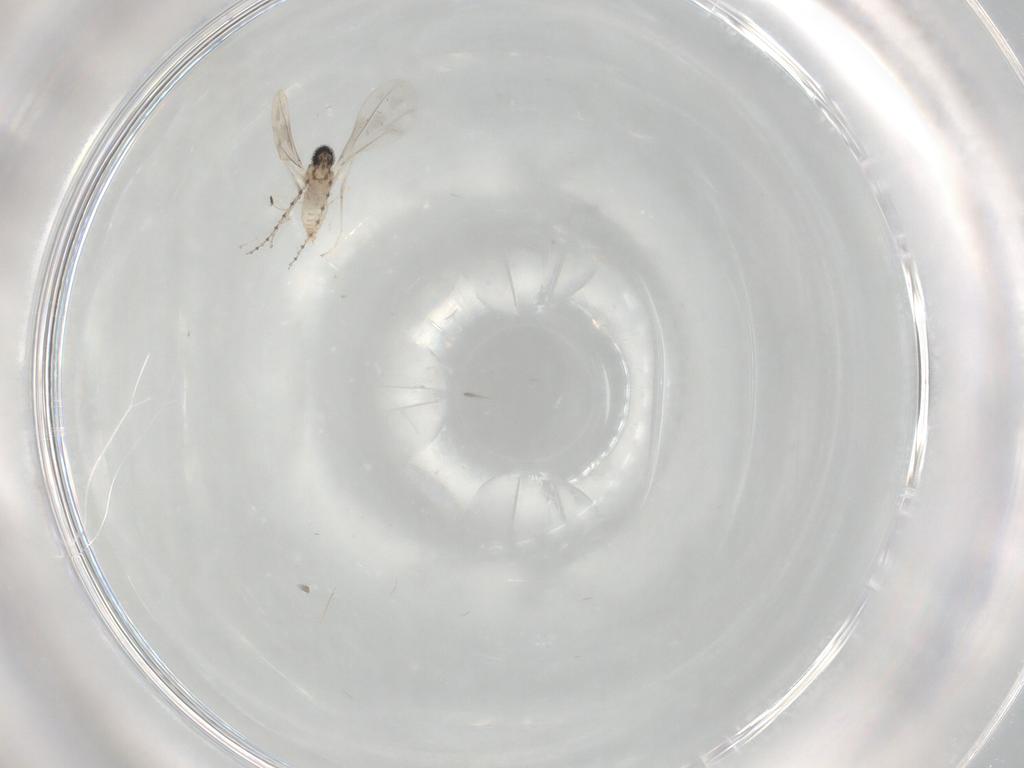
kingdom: Animalia
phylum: Arthropoda
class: Insecta
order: Diptera
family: Cecidomyiidae
